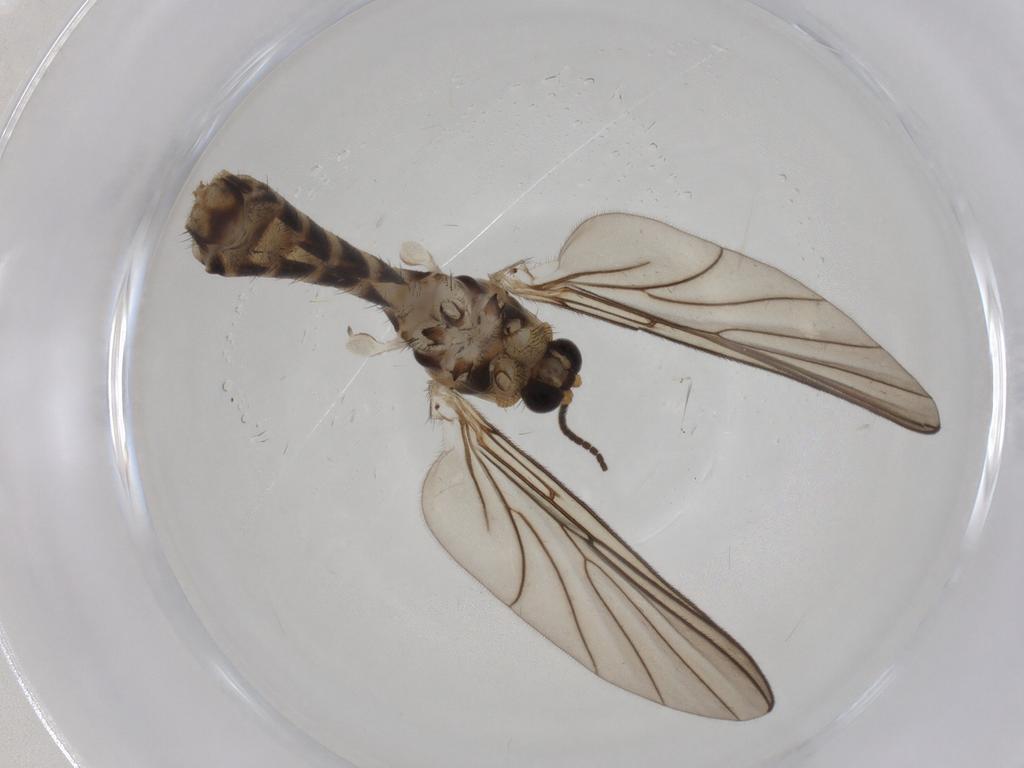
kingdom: Animalia
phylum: Arthropoda
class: Insecta
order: Diptera
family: Mycetophilidae
